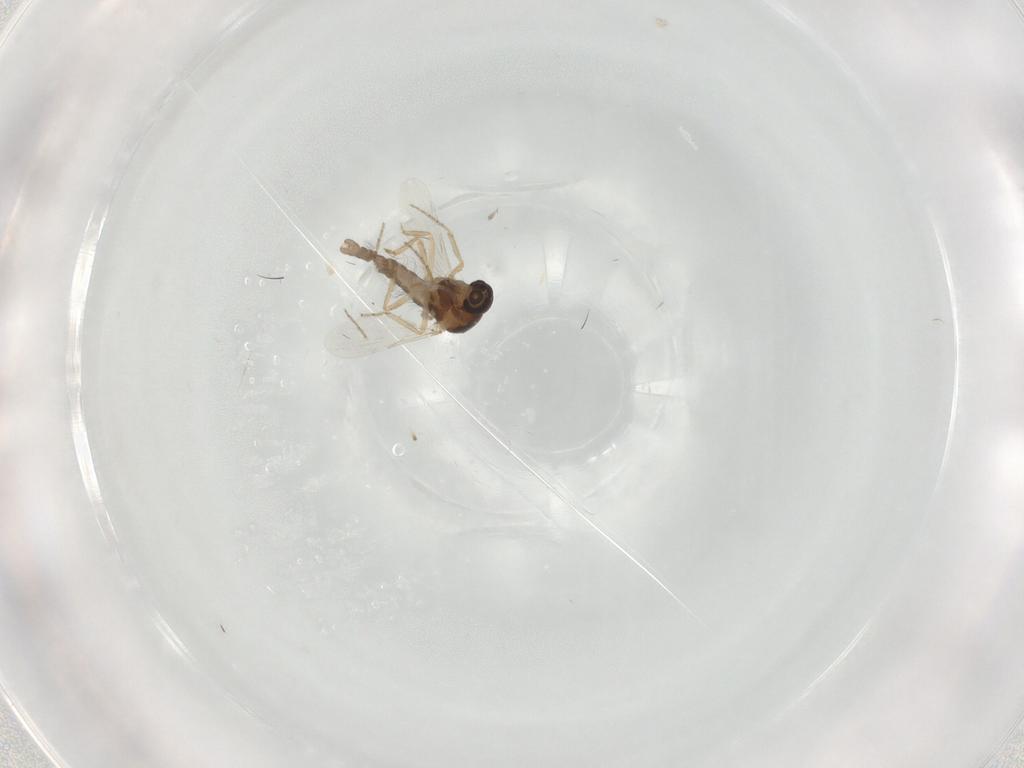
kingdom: Animalia
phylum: Arthropoda
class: Insecta
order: Diptera
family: Ceratopogonidae
